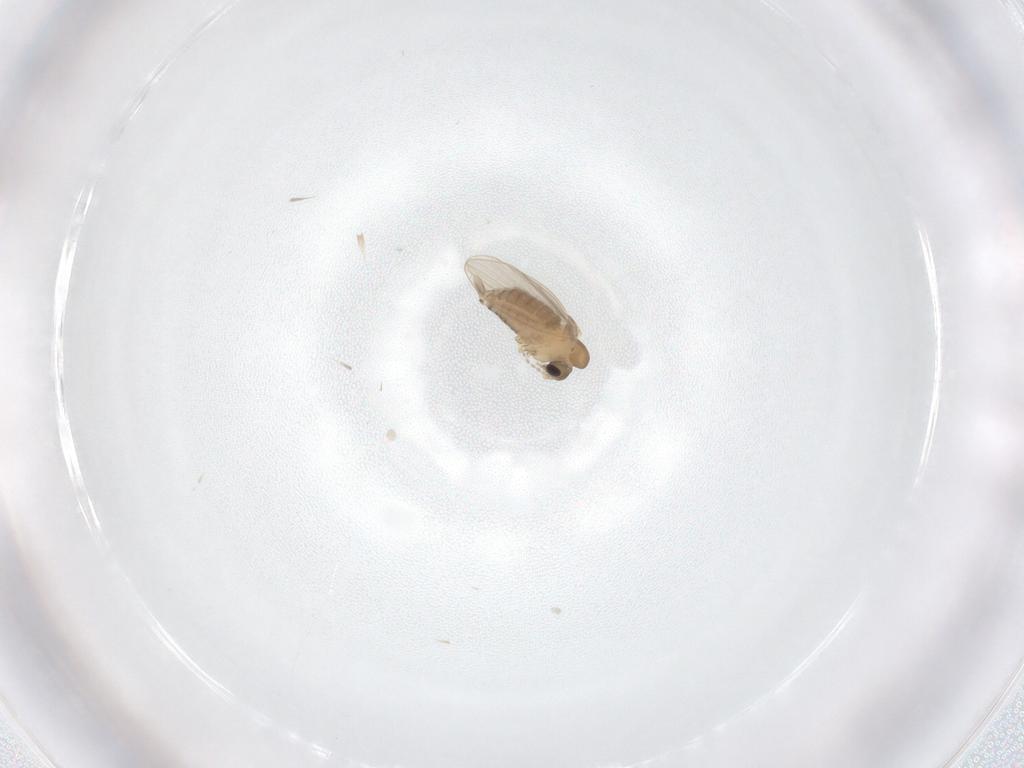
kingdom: Animalia
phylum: Arthropoda
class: Insecta
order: Diptera
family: Psychodidae
